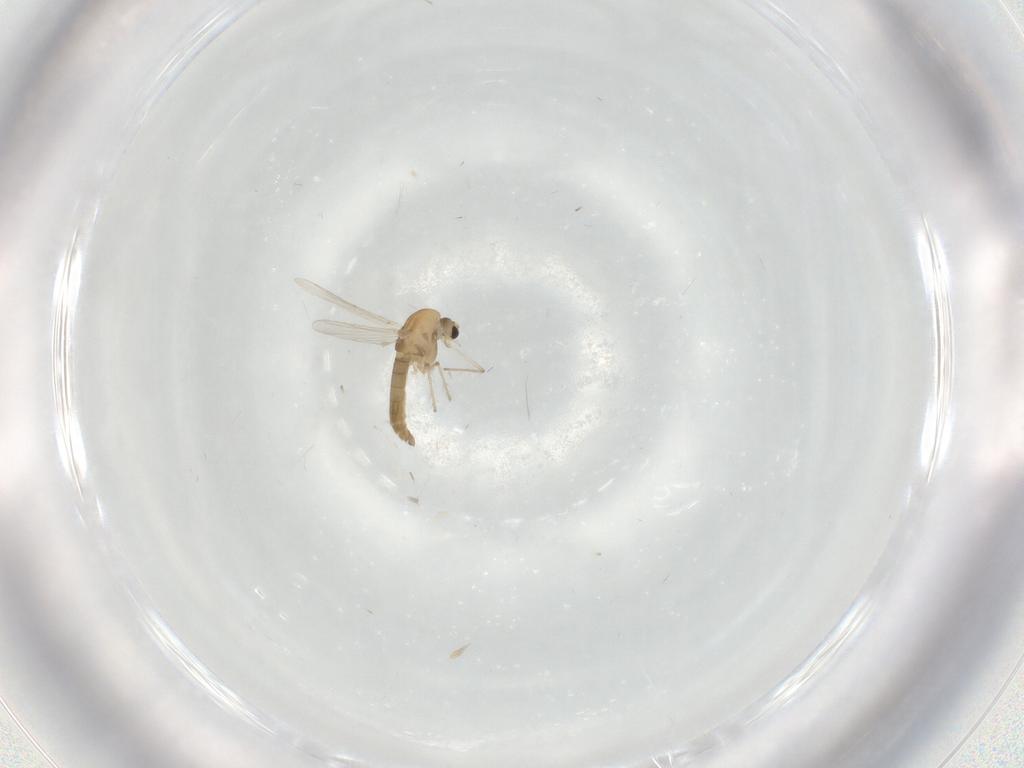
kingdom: Animalia
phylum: Arthropoda
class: Insecta
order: Diptera
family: Chironomidae
